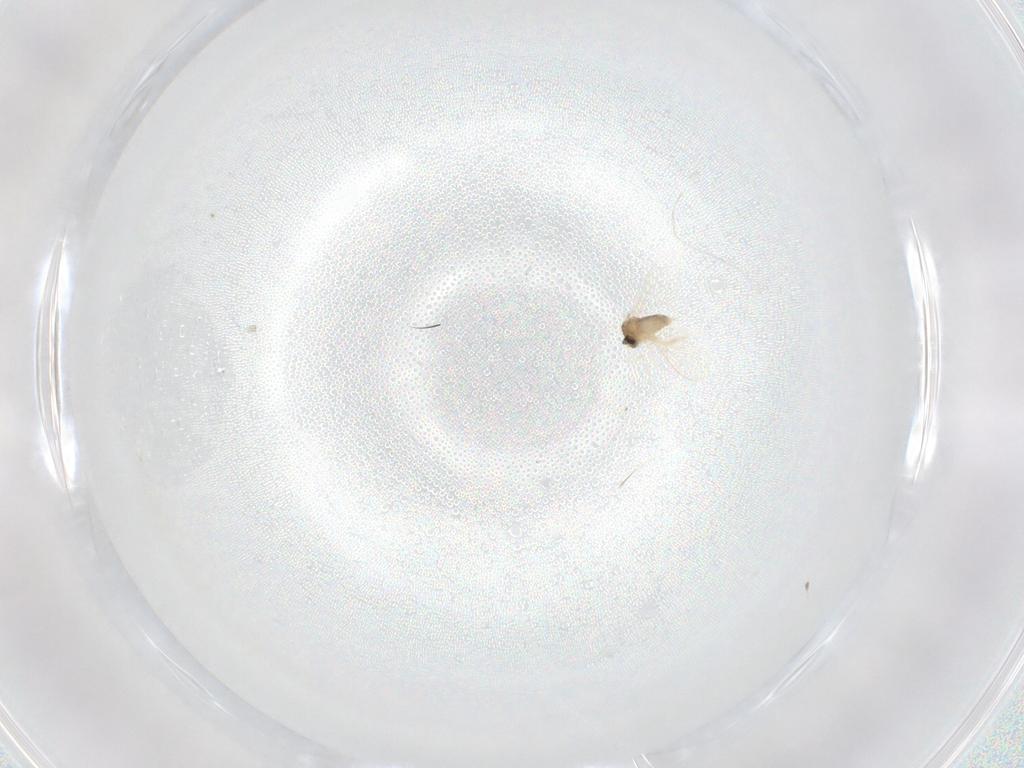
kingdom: Animalia
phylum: Arthropoda
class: Insecta
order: Diptera
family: Cecidomyiidae
